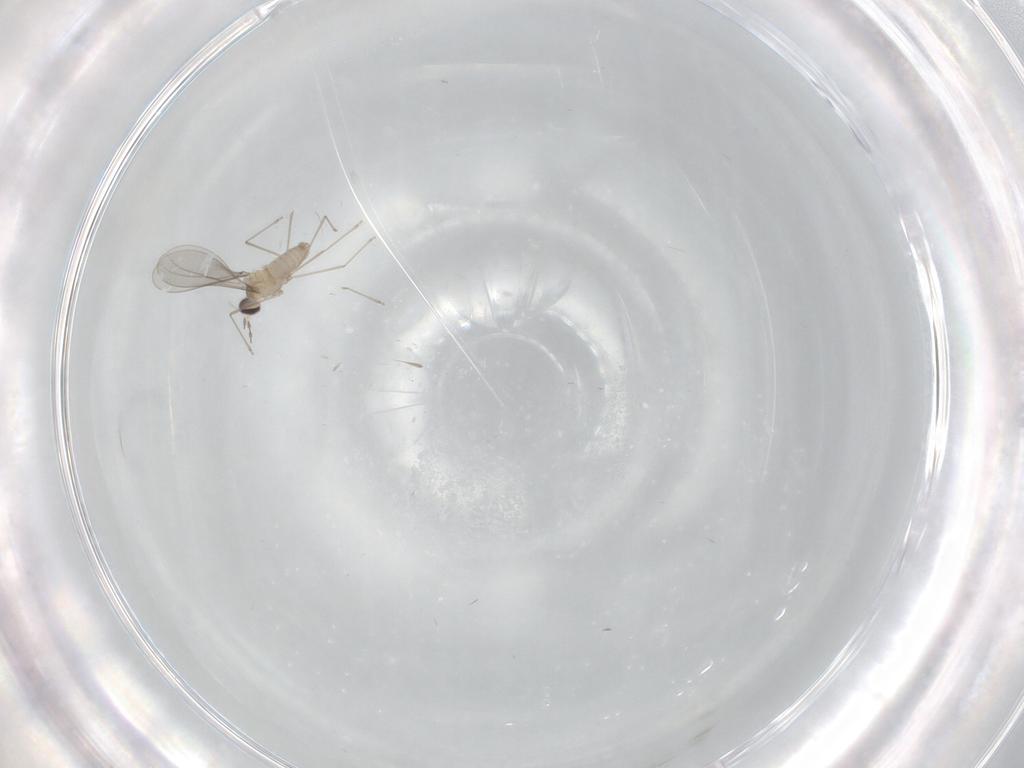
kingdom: Animalia
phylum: Arthropoda
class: Insecta
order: Diptera
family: Cecidomyiidae
